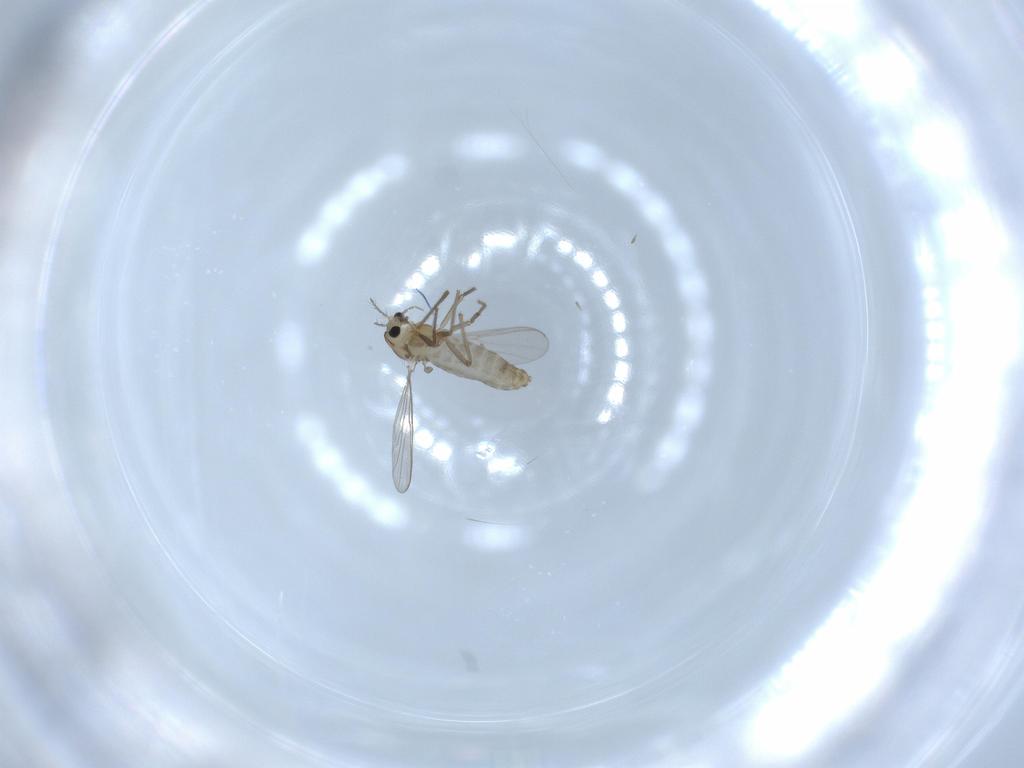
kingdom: Animalia
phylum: Arthropoda
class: Insecta
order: Diptera
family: Chironomidae
